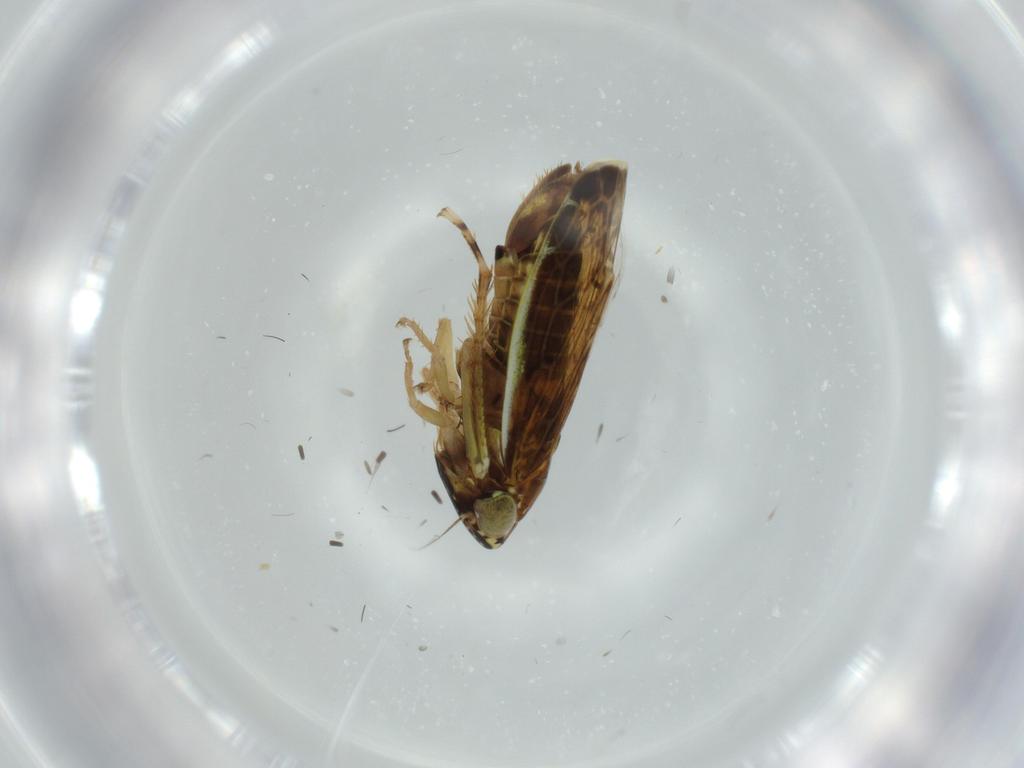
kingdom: Animalia
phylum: Arthropoda
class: Insecta
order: Hemiptera
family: Cicadellidae
